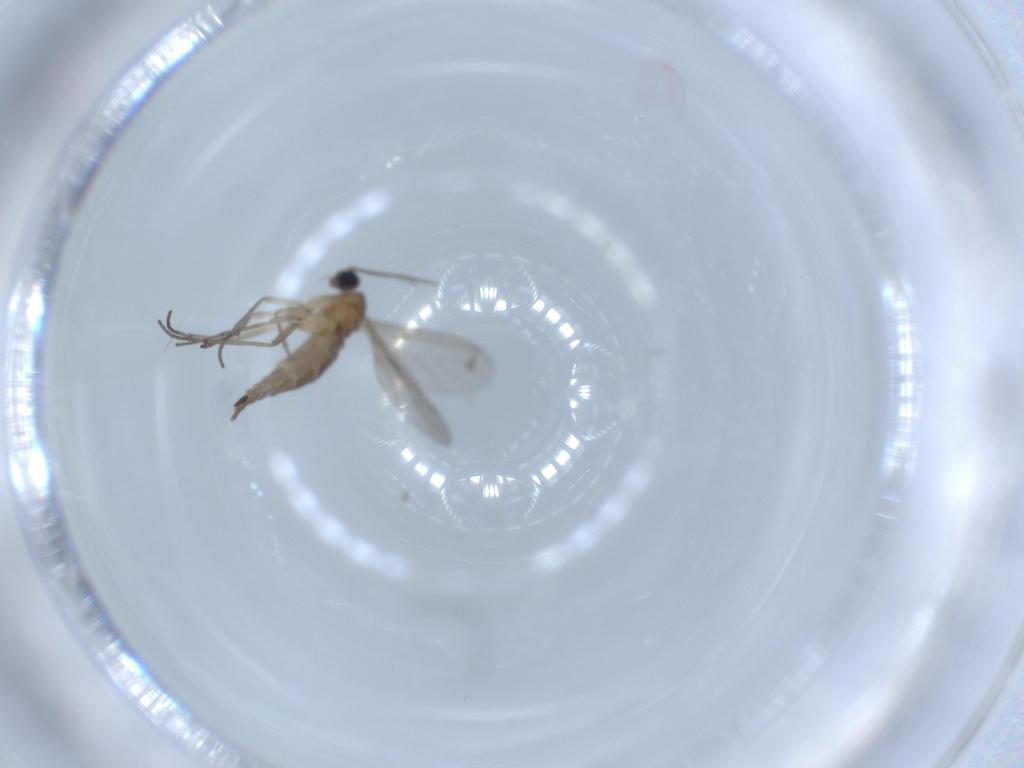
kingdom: Animalia
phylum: Arthropoda
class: Insecta
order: Diptera
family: Sciaridae
